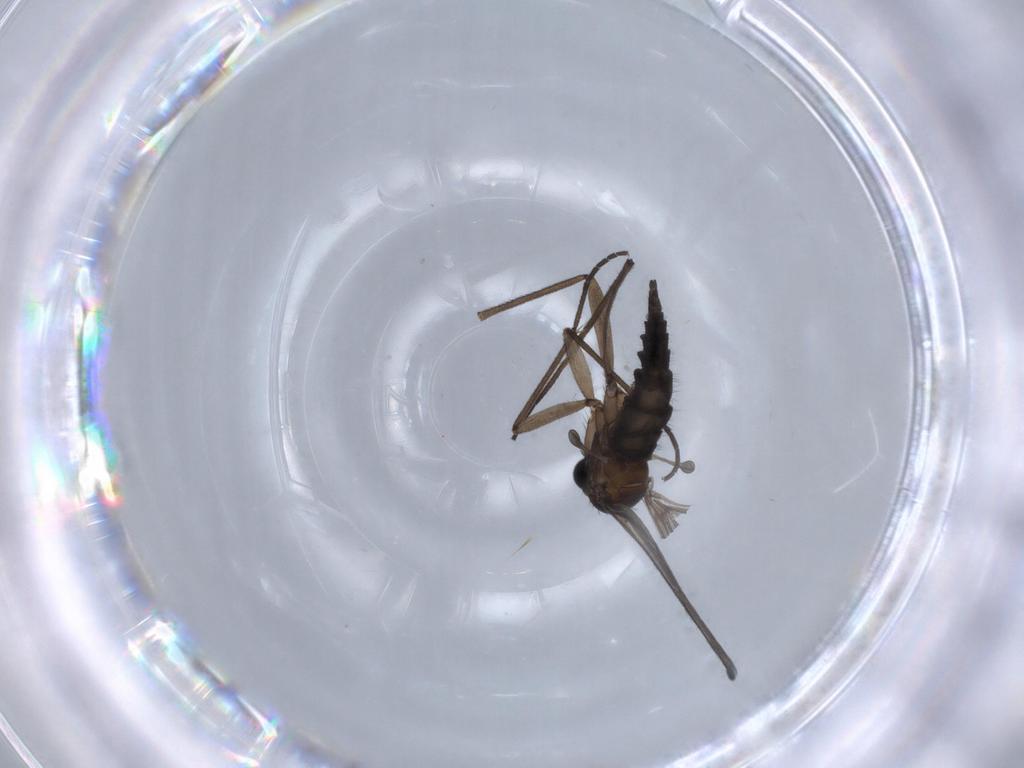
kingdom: Animalia
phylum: Arthropoda
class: Insecta
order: Diptera
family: Sciaridae
